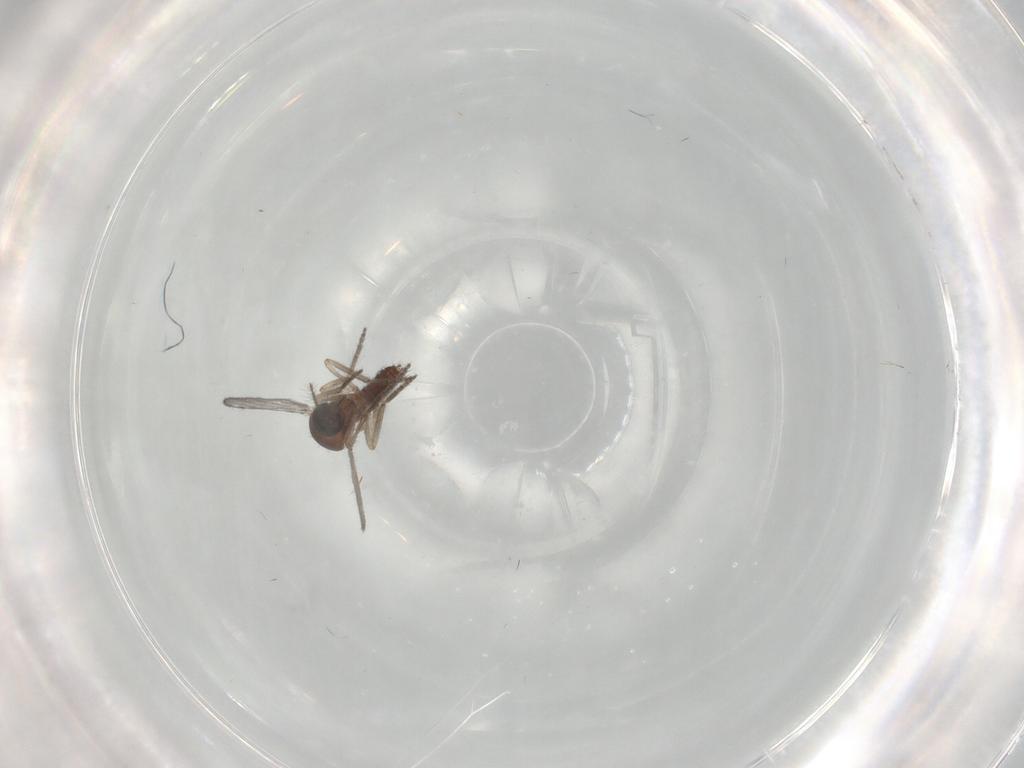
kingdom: Animalia
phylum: Arthropoda
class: Insecta
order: Diptera
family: Ceratopogonidae
